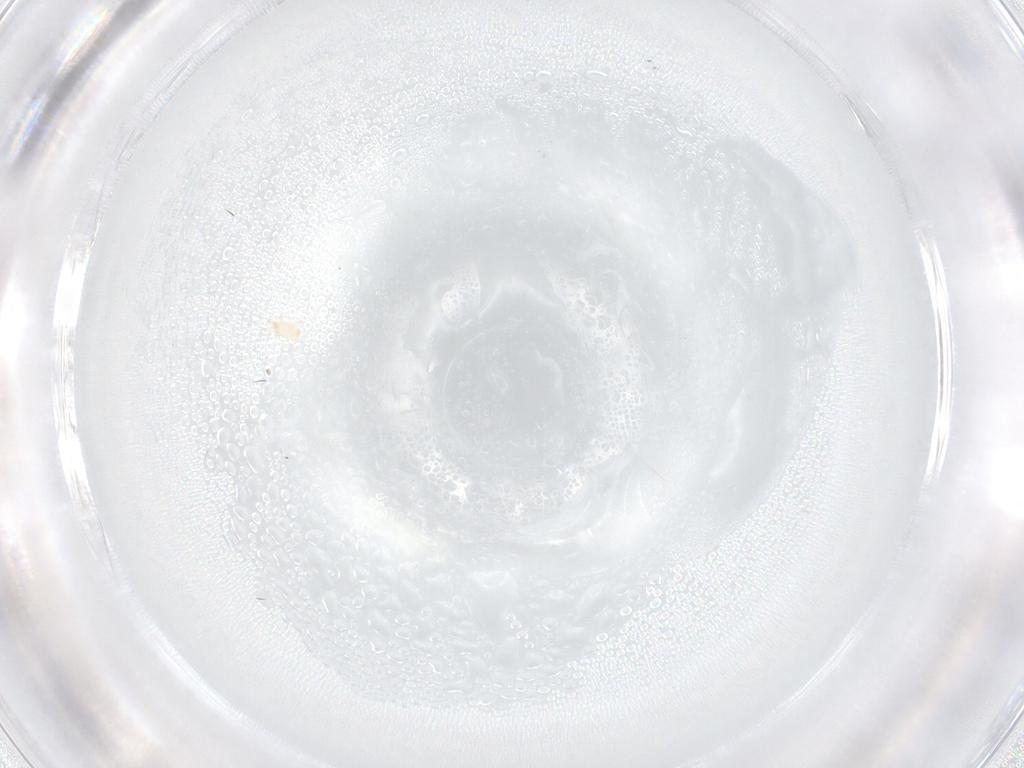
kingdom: Animalia
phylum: Arthropoda
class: Arachnida
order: Mesostigmata
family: Digamasellidae
